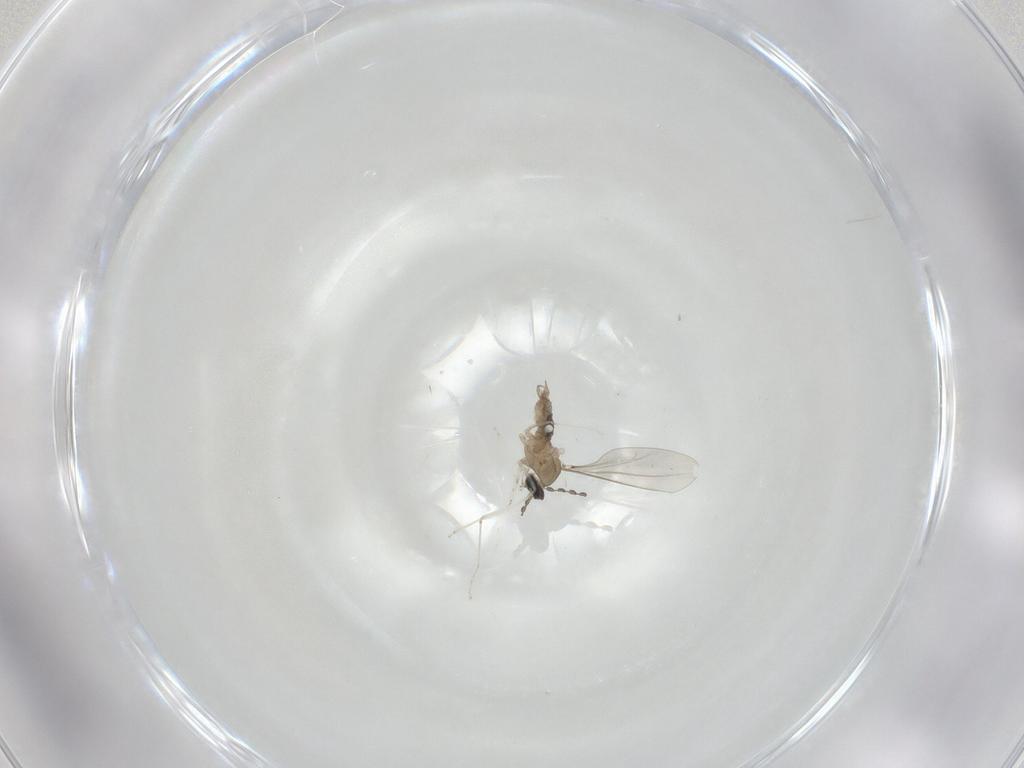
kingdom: Animalia
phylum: Arthropoda
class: Insecta
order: Diptera
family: Cecidomyiidae
